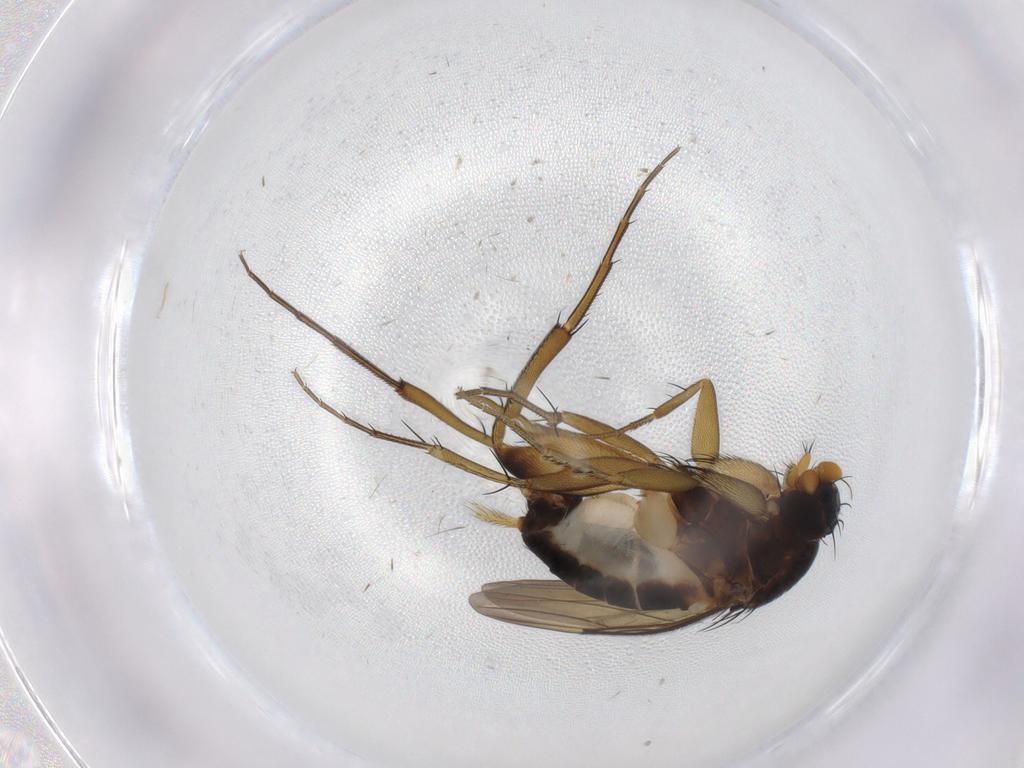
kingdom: Animalia
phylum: Arthropoda
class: Insecta
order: Diptera
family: Phoridae
